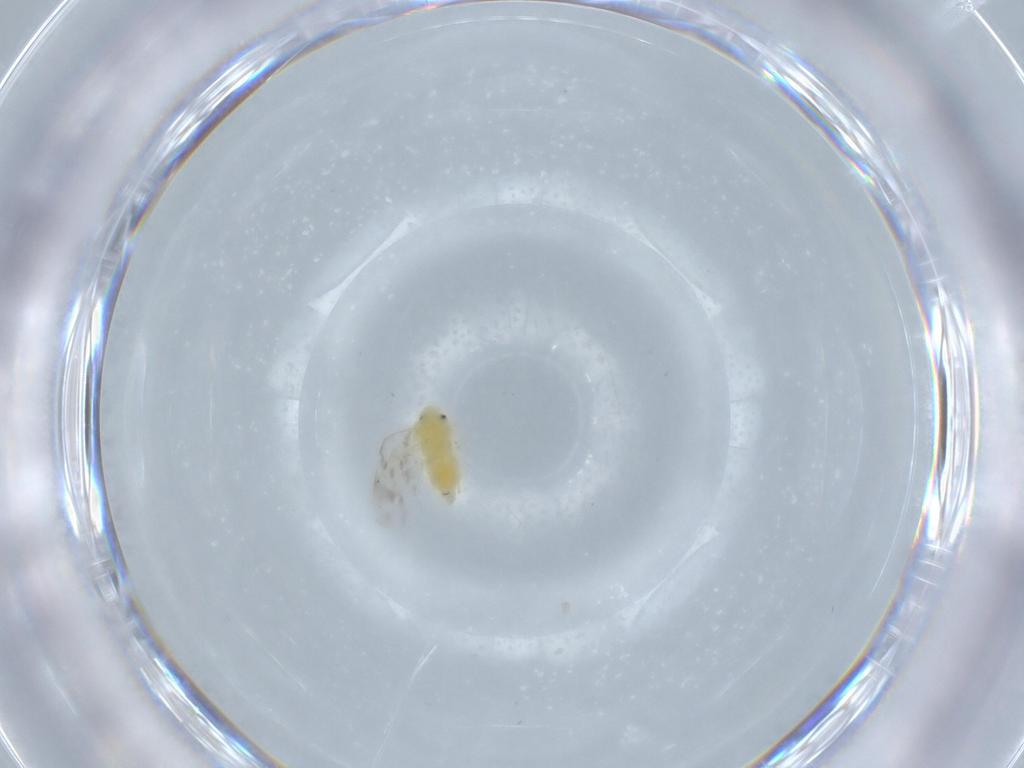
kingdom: Animalia
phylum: Arthropoda
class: Insecta
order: Hemiptera
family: Aleyrodidae
